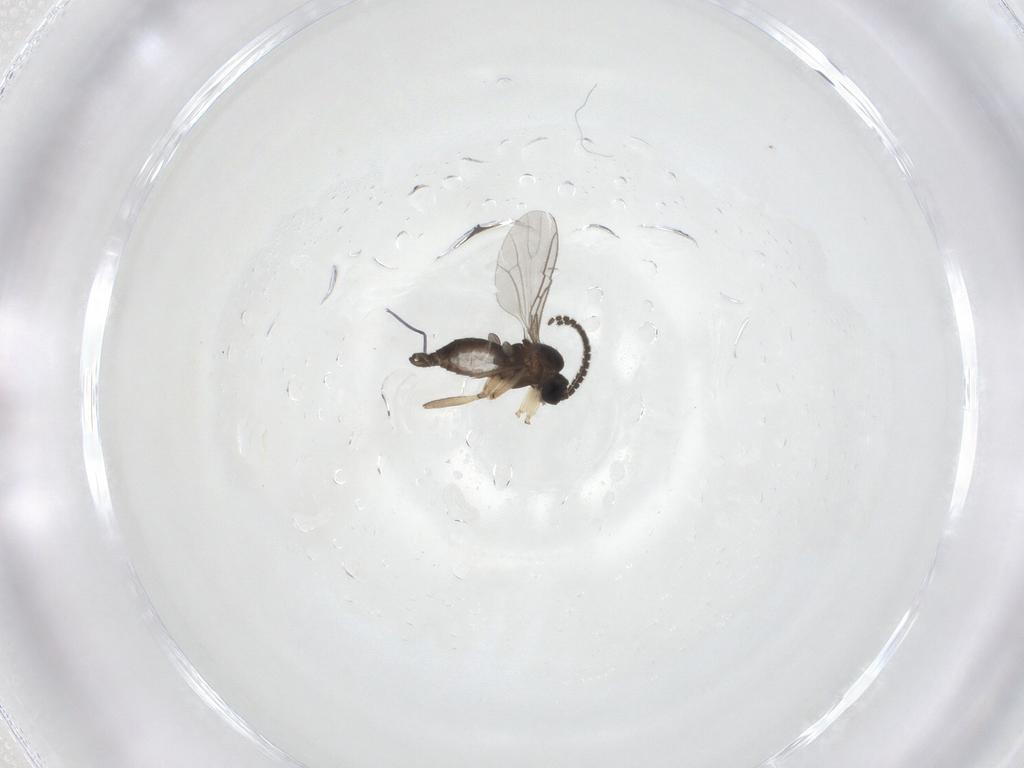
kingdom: Animalia
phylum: Arthropoda
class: Insecta
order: Diptera
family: Sciaridae
